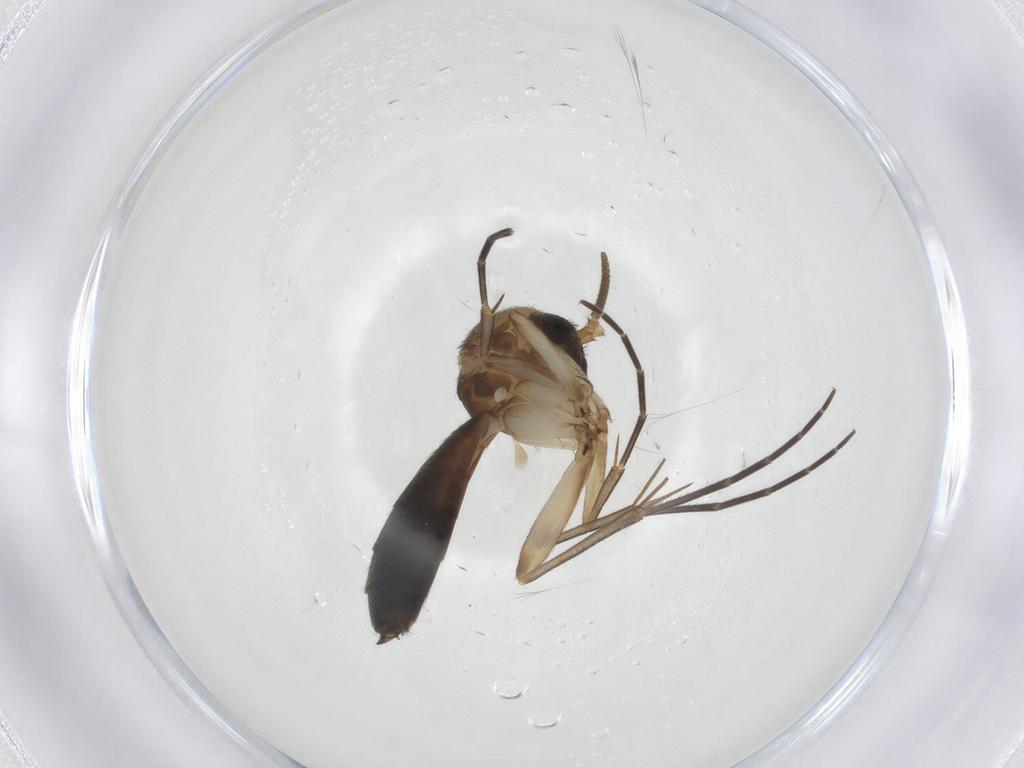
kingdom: Animalia
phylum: Arthropoda
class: Insecta
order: Diptera
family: Mycetophilidae
